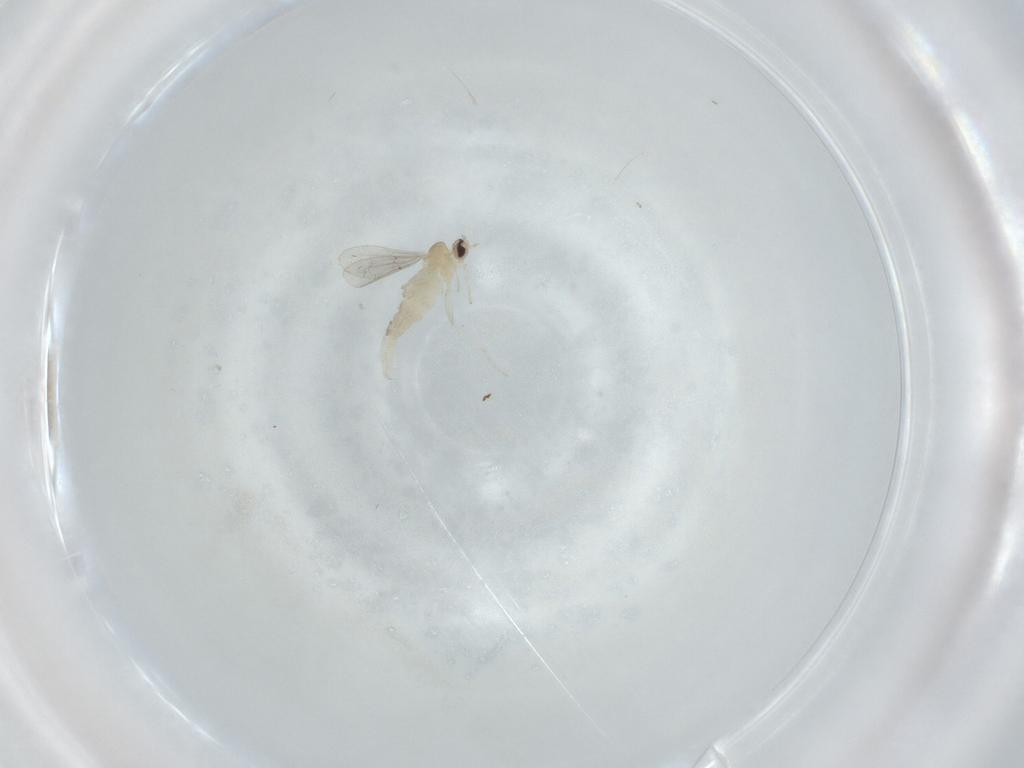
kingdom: Animalia
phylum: Arthropoda
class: Insecta
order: Diptera
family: Cecidomyiidae
